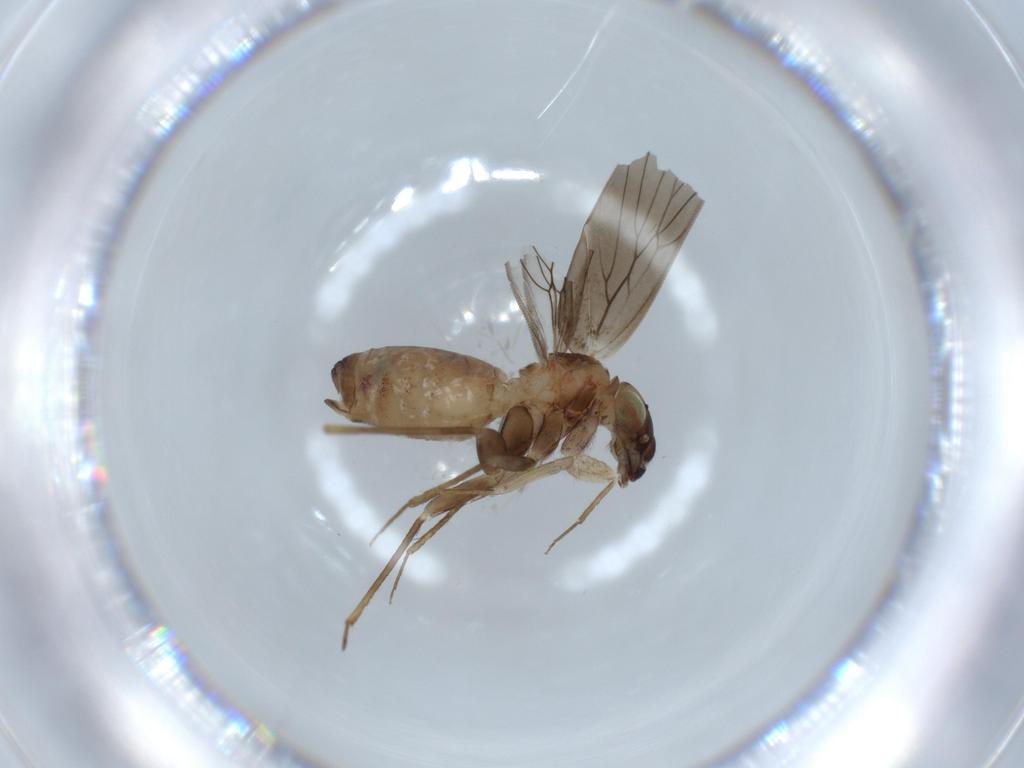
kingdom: Animalia
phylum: Arthropoda
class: Insecta
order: Psocodea
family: Lepidopsocidae
